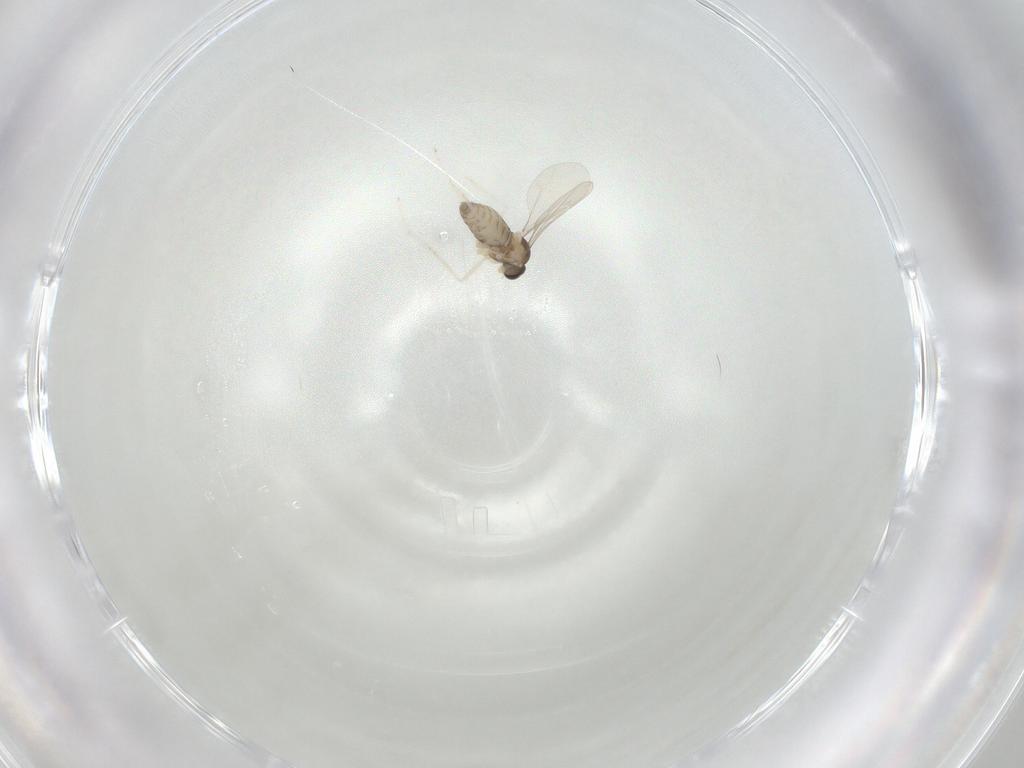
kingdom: Animalia
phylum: Arthropoda
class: Insecta
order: Diptera
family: Cecidomyiidae
